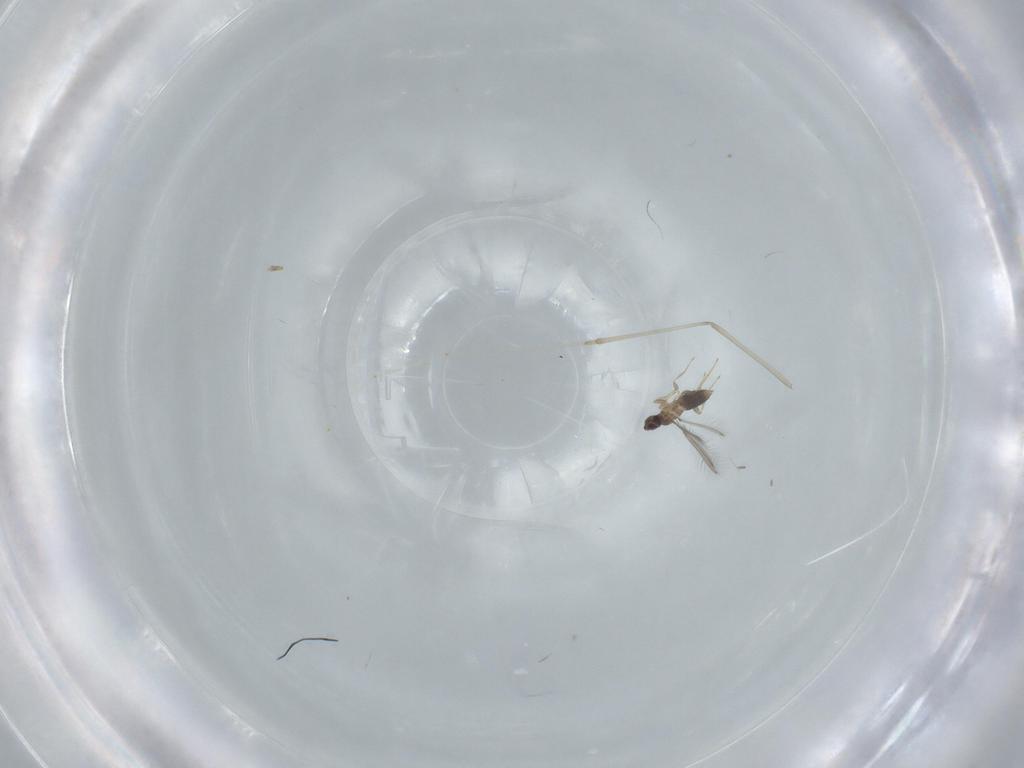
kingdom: Animalia
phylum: Arthropoda
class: Insecta
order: Diptera
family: Cecidomyiidae
